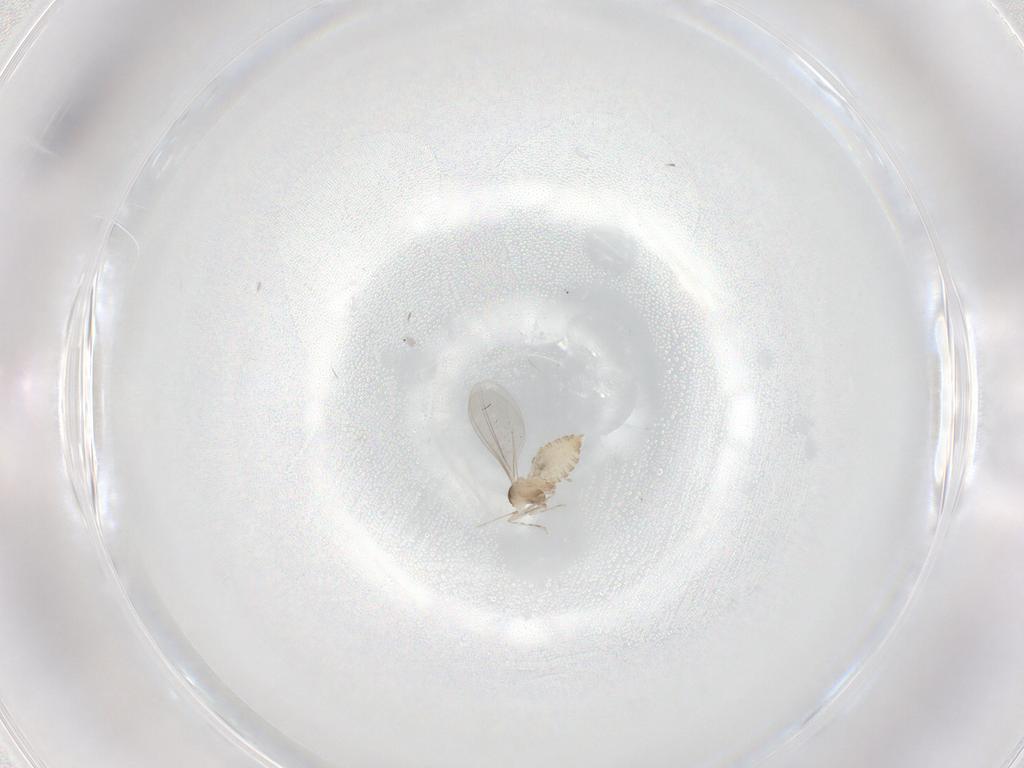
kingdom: Animalia
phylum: Arthropoda
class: Insecta
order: Diptera
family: Cecidomyiidae
